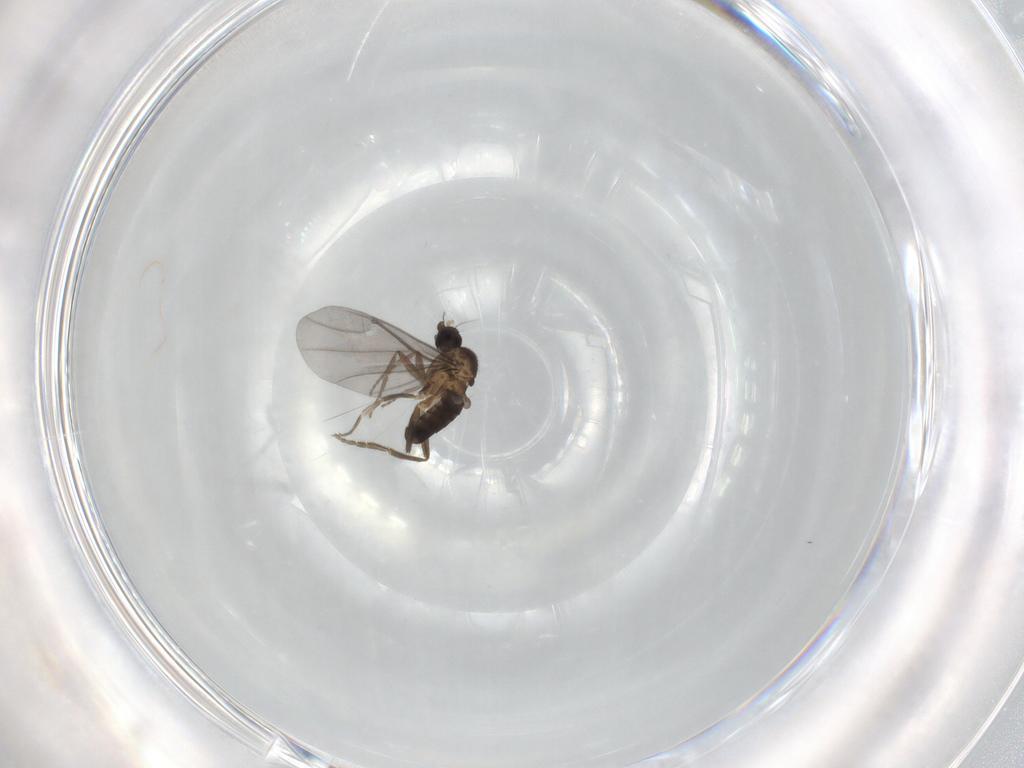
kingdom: Animalia
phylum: Arthropoda
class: Insecta
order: Diptera
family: Phoridae
